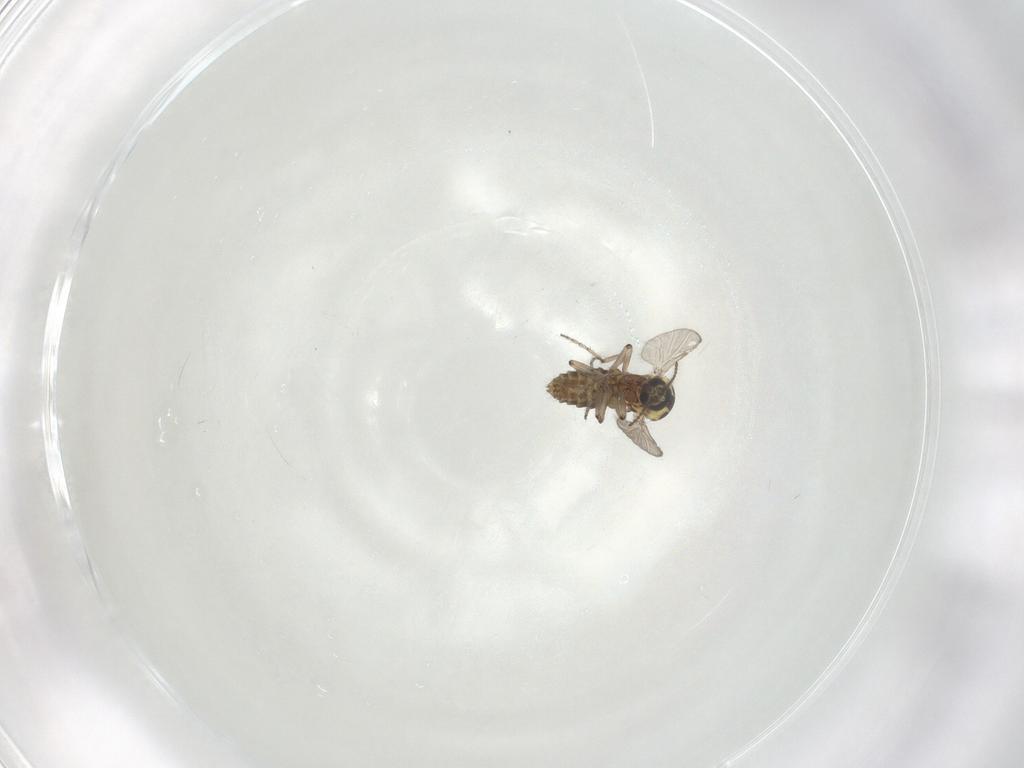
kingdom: Animalia
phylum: Arthropoda
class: Insecta
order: Diptera
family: Ceratopogonidae
